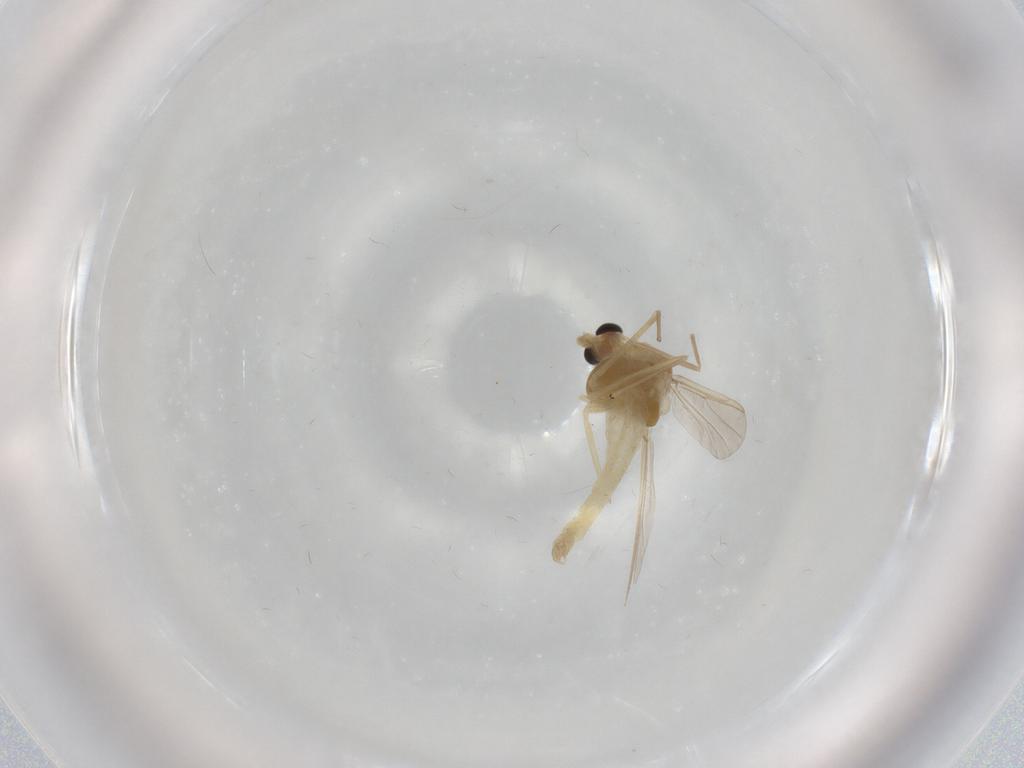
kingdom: Animalia
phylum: Arthropoda
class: Insecta
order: Diptera
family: Chironomidae
